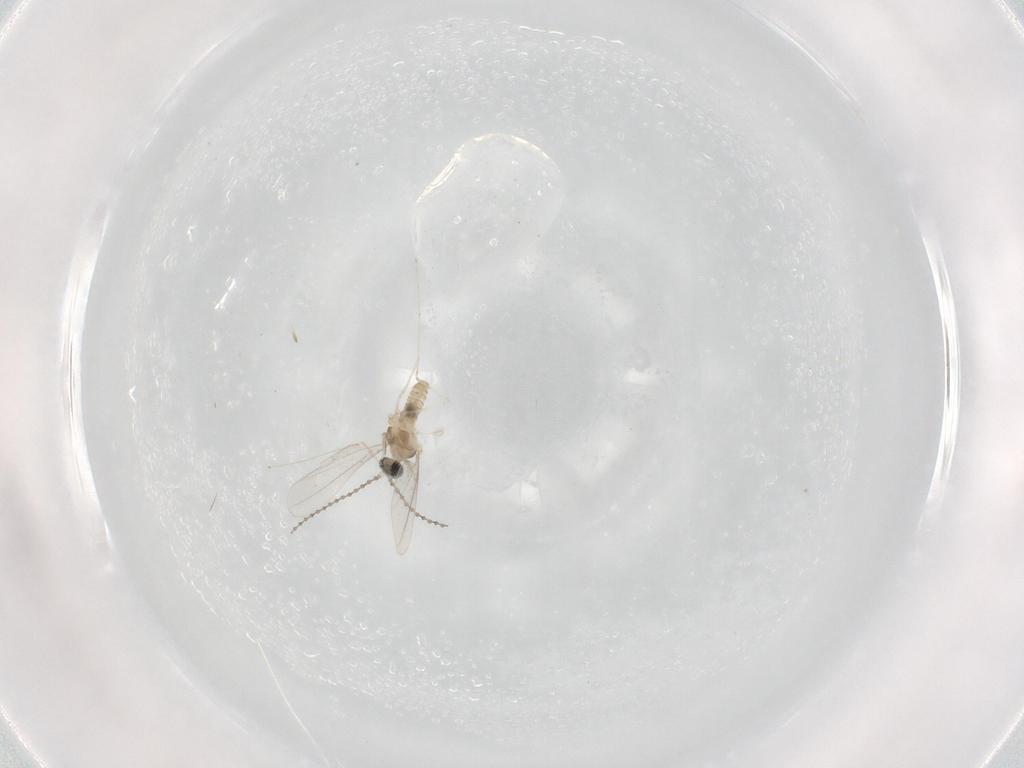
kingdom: Animalia
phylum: Arthropoda
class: Insecta
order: Diptera
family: Cecidomyiidae
